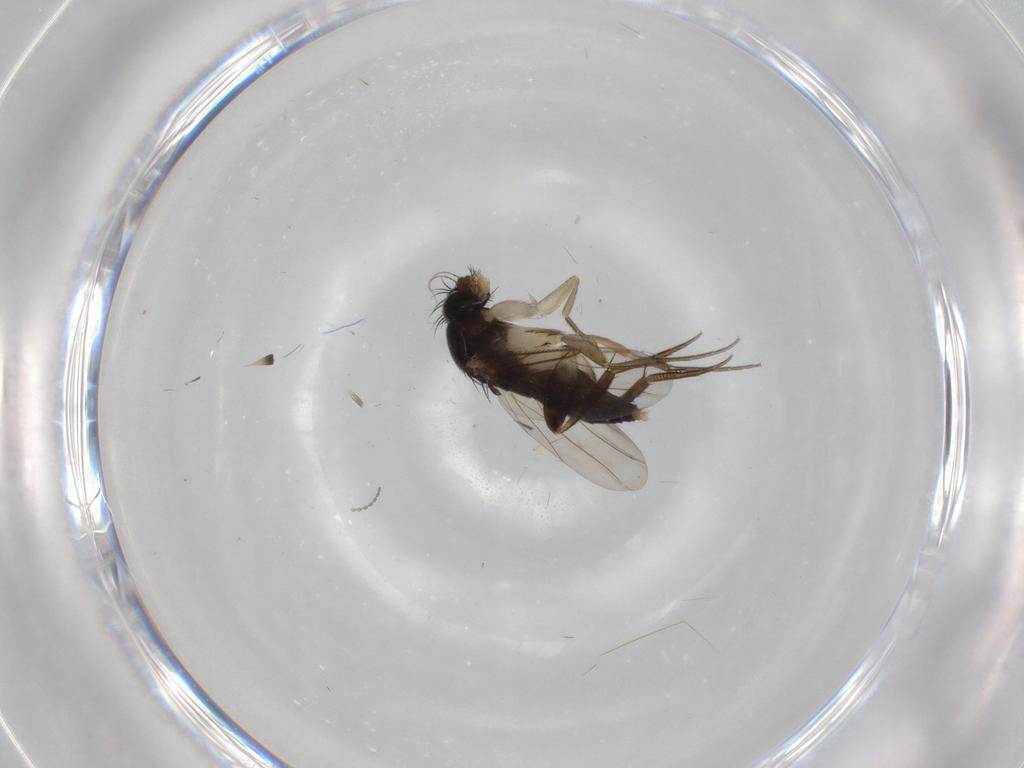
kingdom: Animalia
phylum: Arthropoda
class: Insecta
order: Diptera
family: Phoridae
